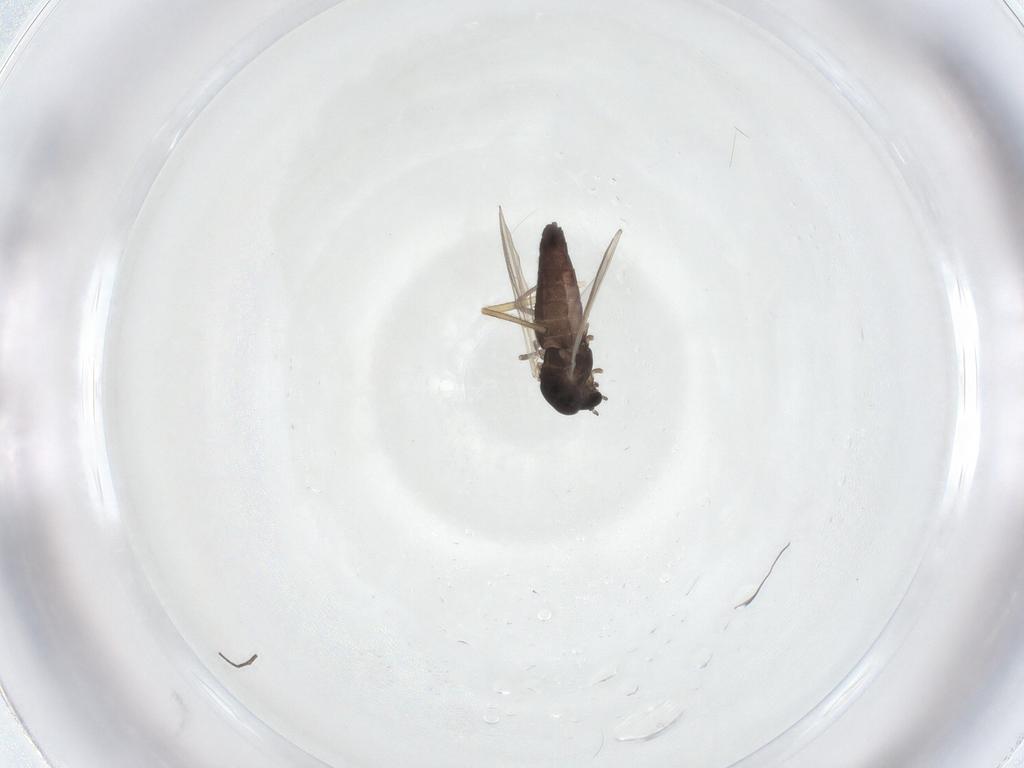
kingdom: Animalia
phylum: Arthropoda
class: Insecta
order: Diptera
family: Sciaridae
